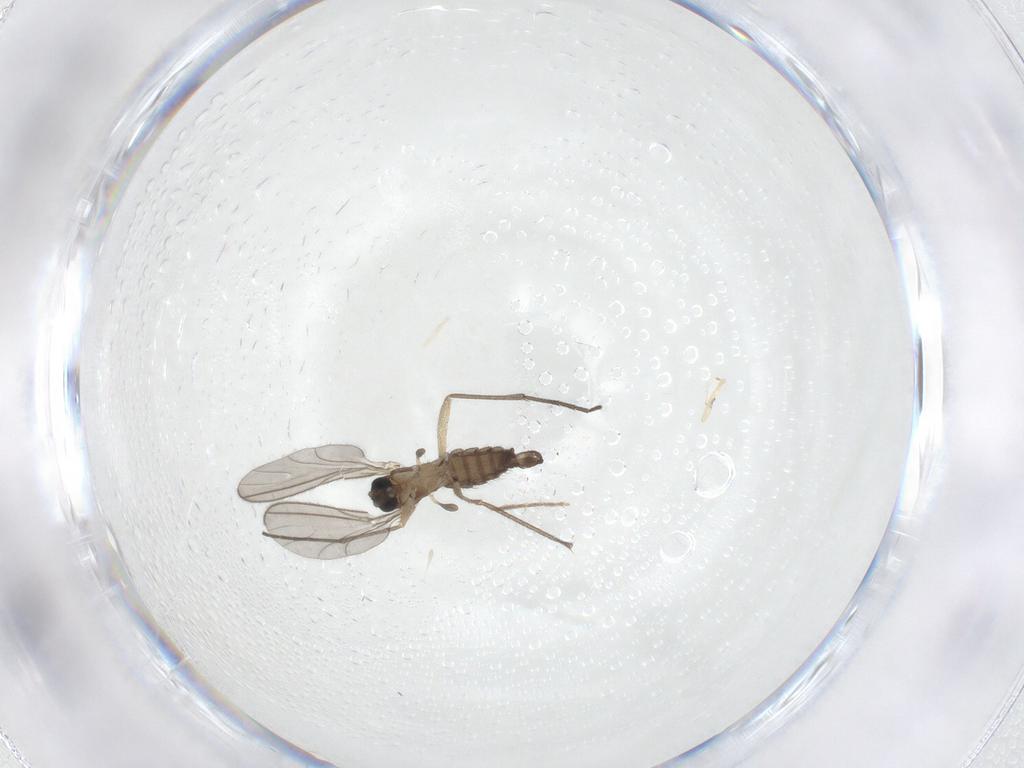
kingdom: Animalia
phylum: Arthropoda
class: Insecta
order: Diptera
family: Sciaridae
